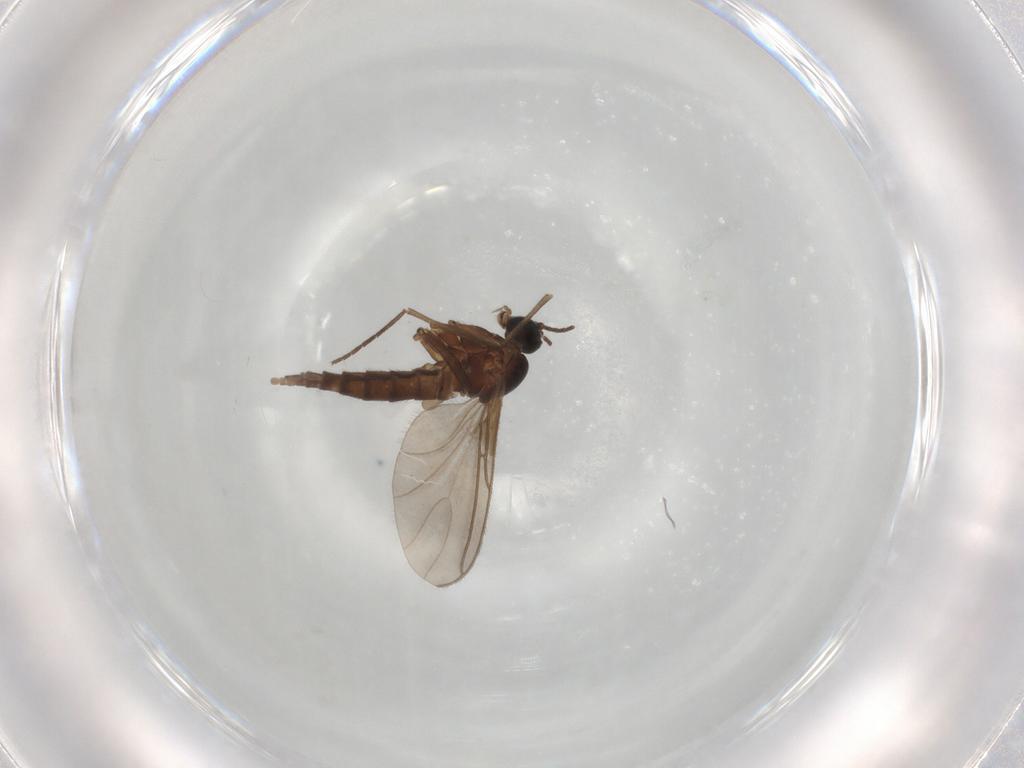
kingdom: Animalia
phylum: Arthropoda
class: Insecta
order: Diptera
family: Sciaridae
